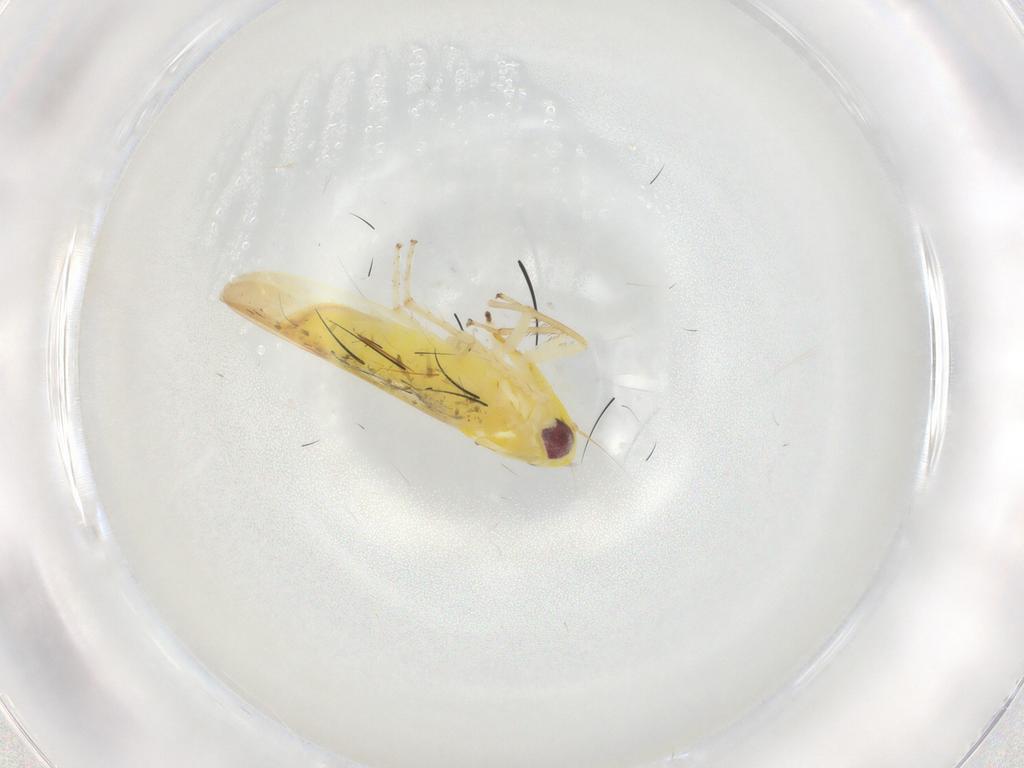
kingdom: Animalia
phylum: Arthropoda
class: Insecta
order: Hemiptera
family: Cicadellidae
